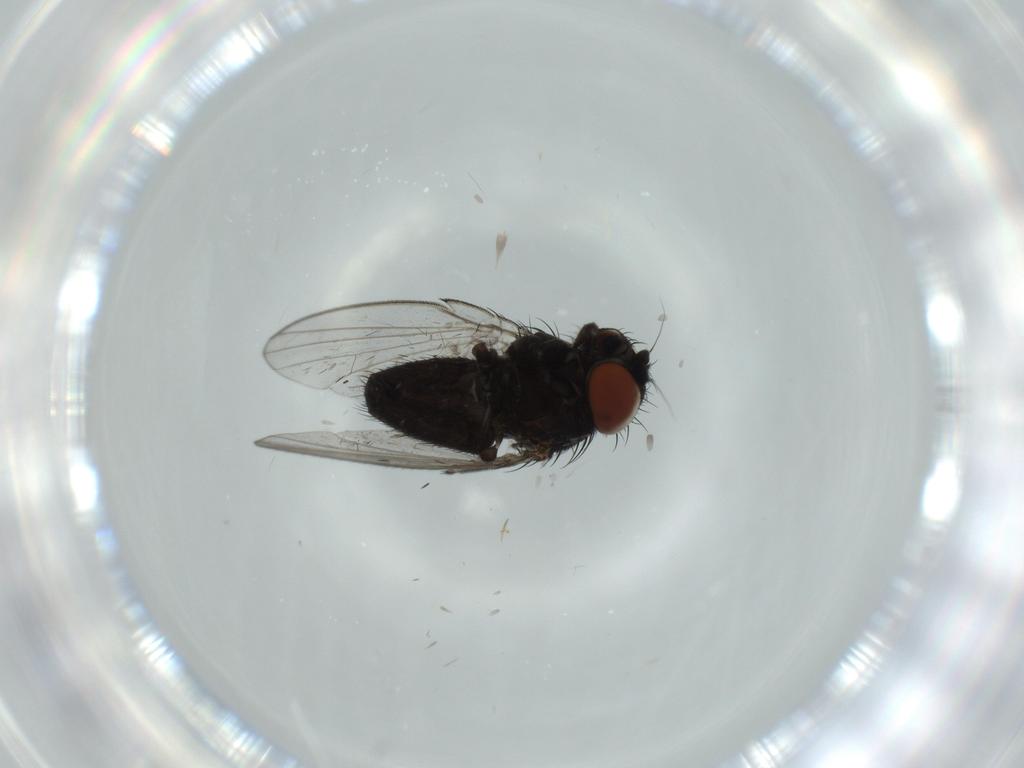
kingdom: Animalia
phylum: Arthropoda
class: Insecta
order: Diptera
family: Milichiidae
